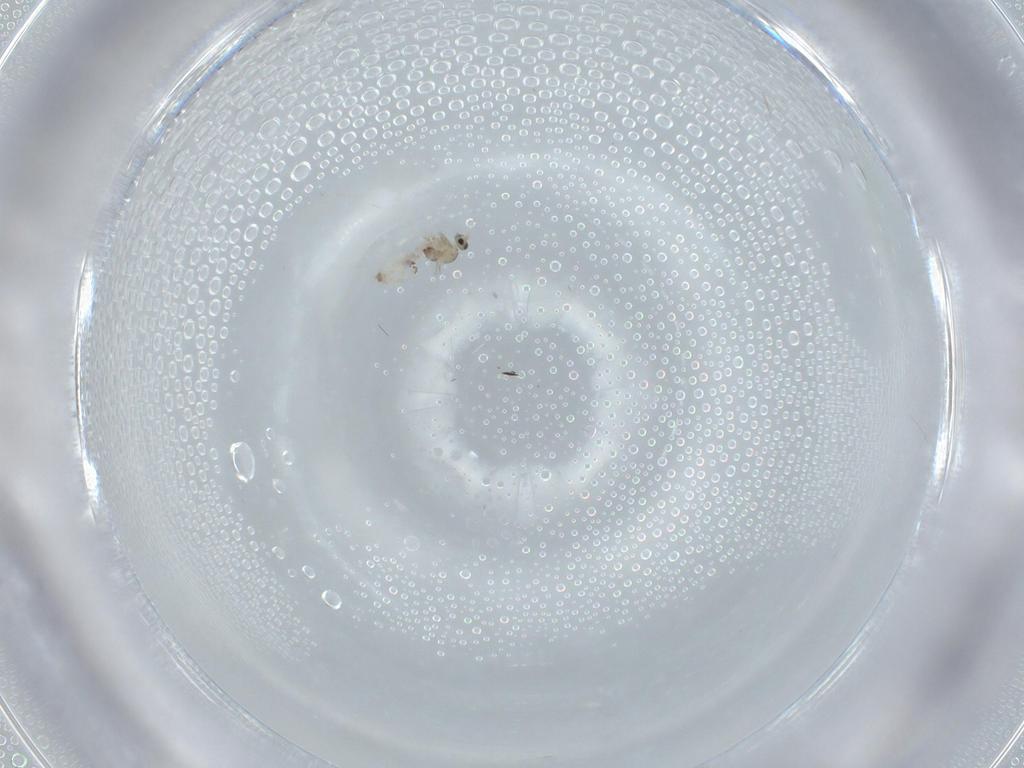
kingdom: Animalia
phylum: Arthropoda
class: Insecta
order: Diptera
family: Cecidomyiidae
